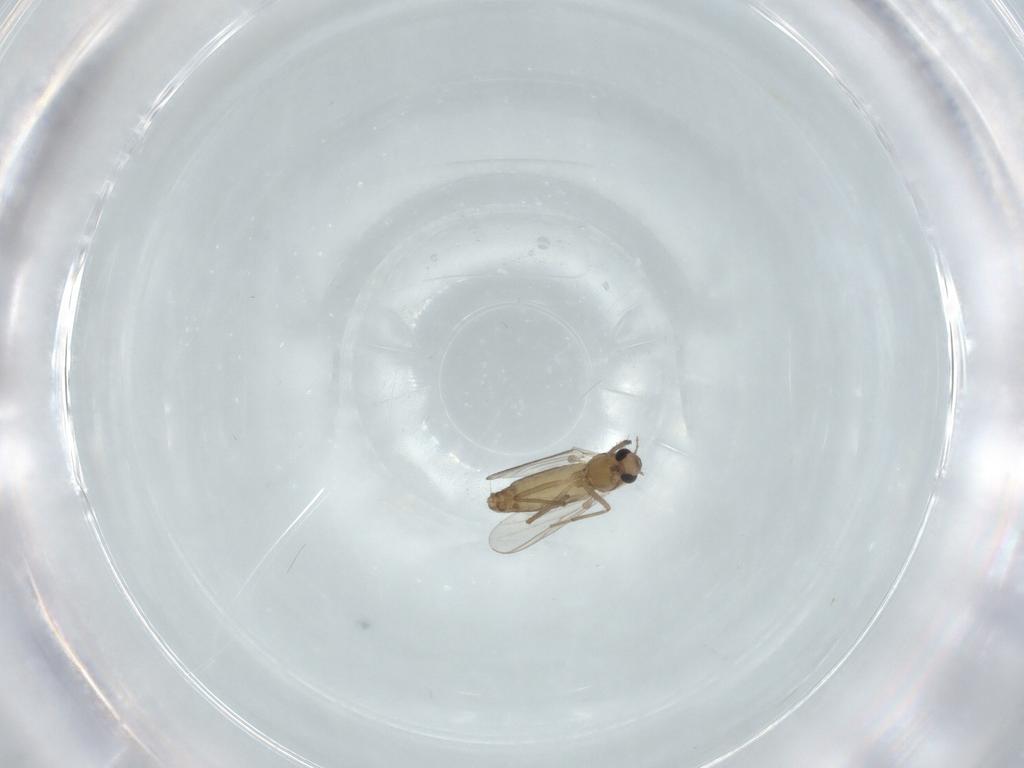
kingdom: Animalia
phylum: Arthropoda
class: Insecta
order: Diptera
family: Chironomidae
